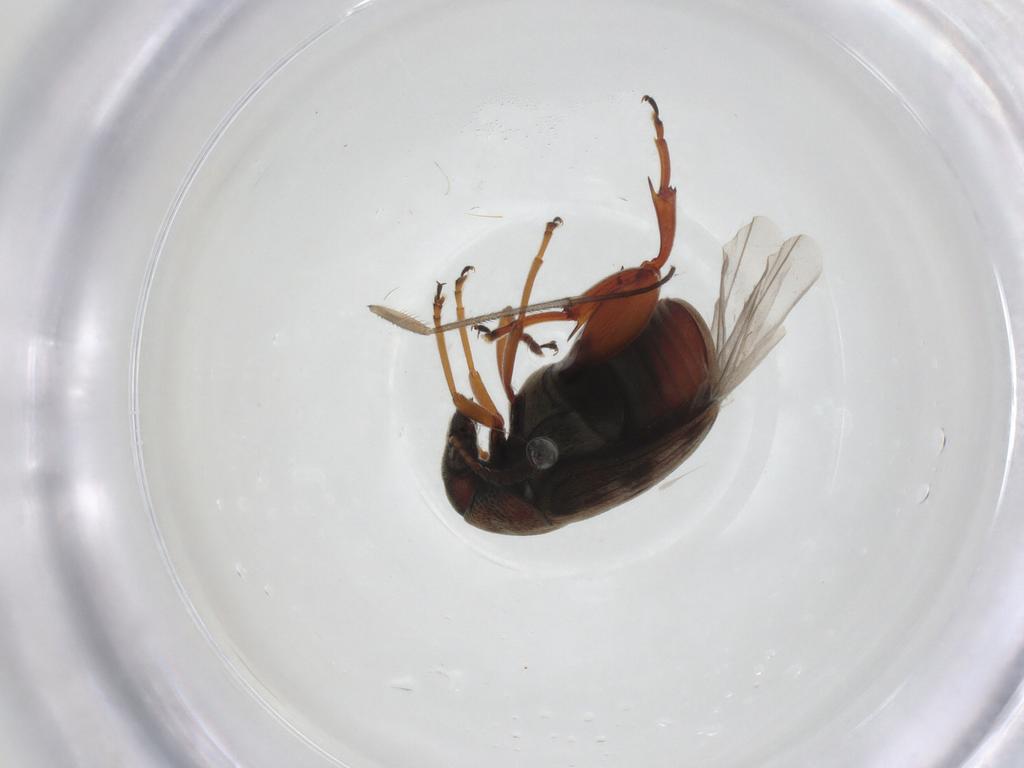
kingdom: Animalia
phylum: Arthropoda
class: Insecta
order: Coleoptera
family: Chrysomelidae
